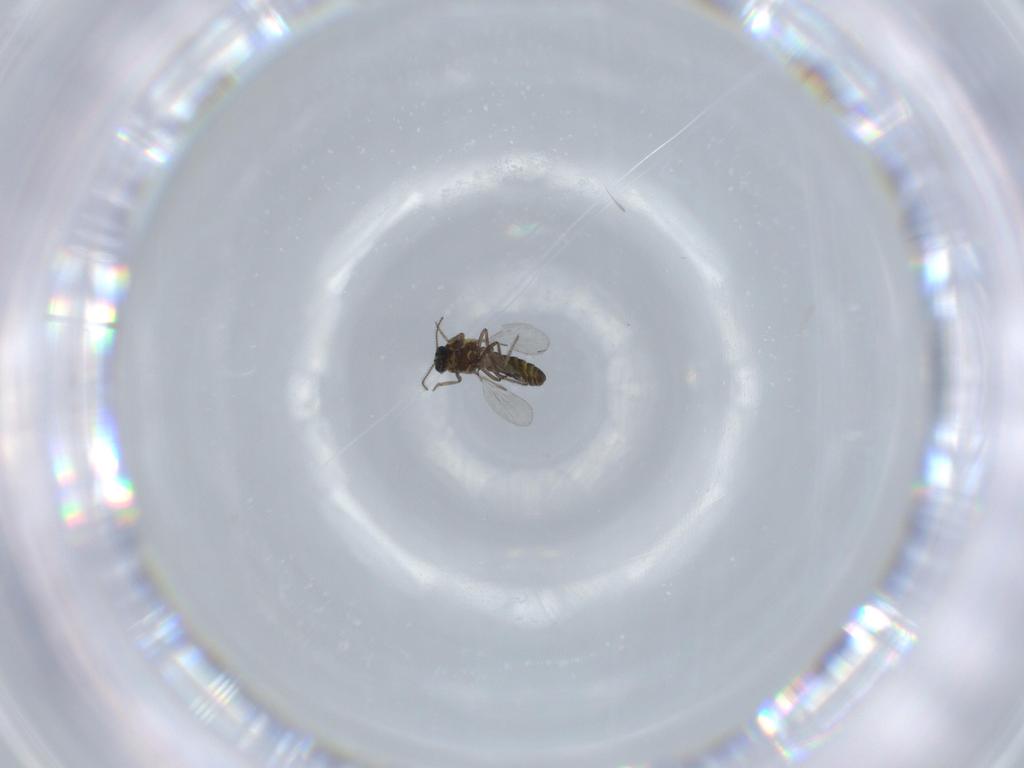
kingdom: Animalia
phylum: Arthropoda
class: Insecta
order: Diptera
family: Ceratopogonidae
